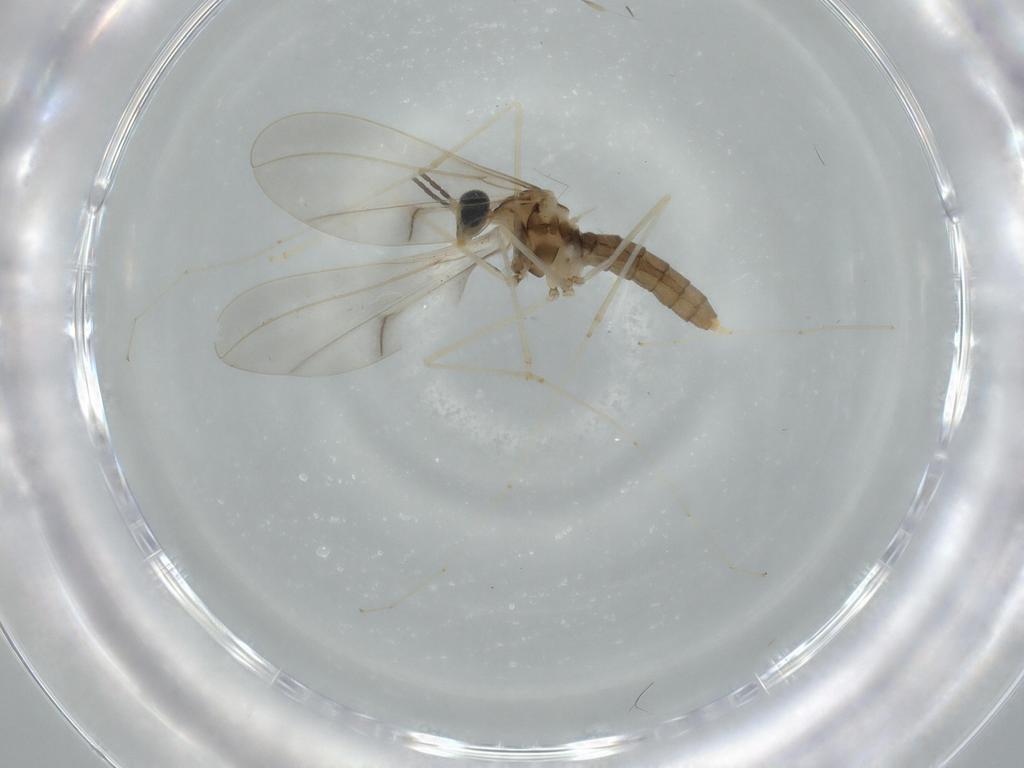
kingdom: Animalia
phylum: Arthropoda
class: Insecta
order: Diptera
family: Cecidomyiidae
